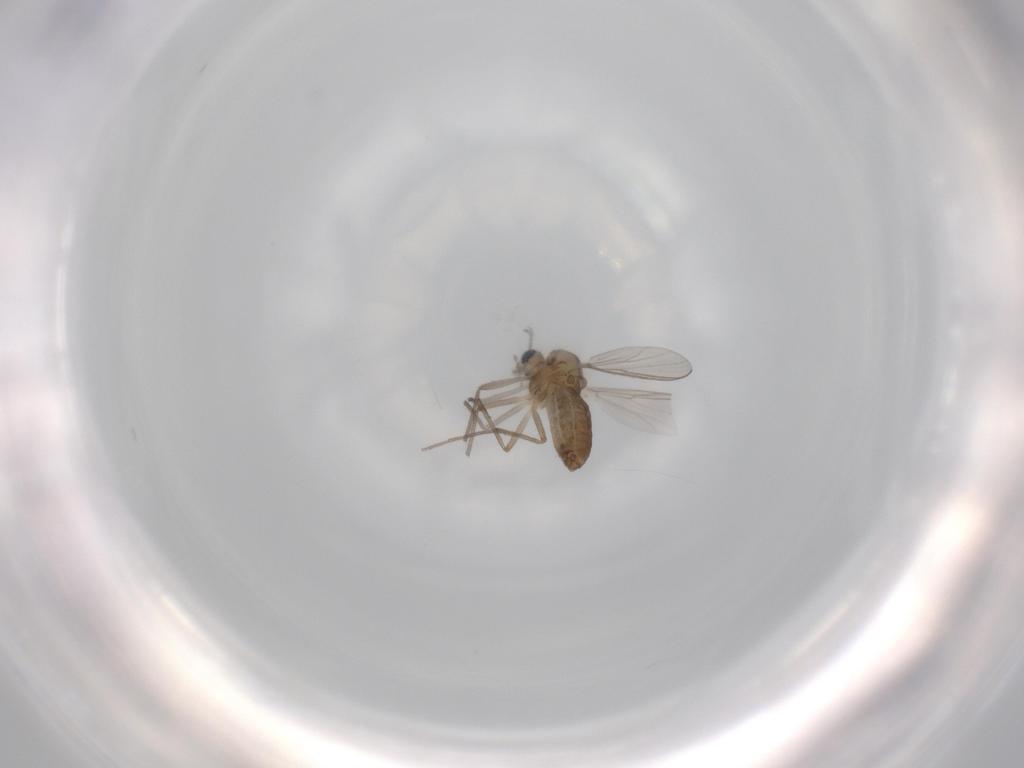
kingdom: Animalia
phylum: Arthropoda
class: Insecta
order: Diptera
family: Chironomidae
